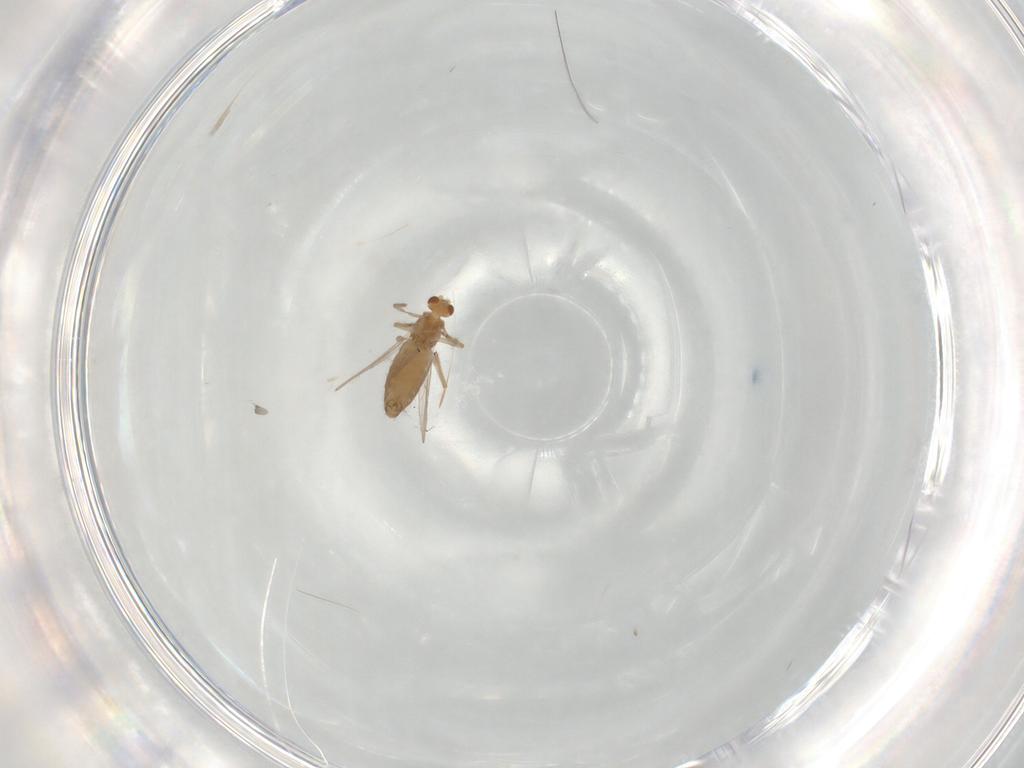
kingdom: Animalia
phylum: Arthropoda
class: Insecta
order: Diptera
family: Chironomidae
